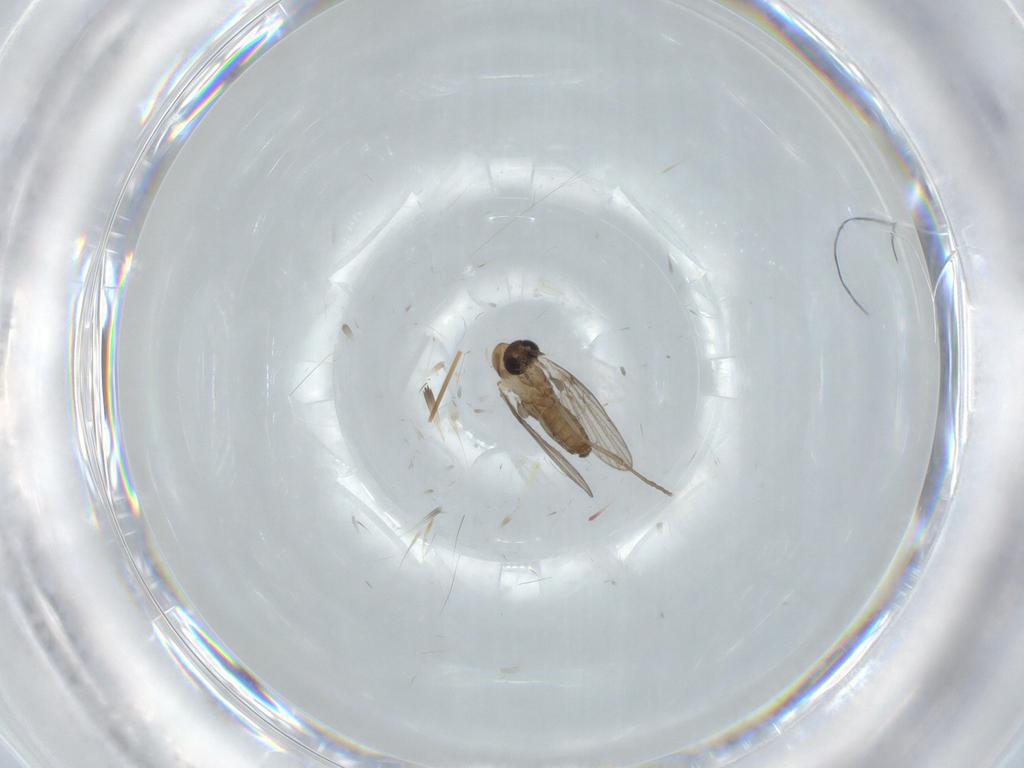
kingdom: Animalia
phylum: Arthropoda
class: Insecta
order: Diptera
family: Psychodidae
